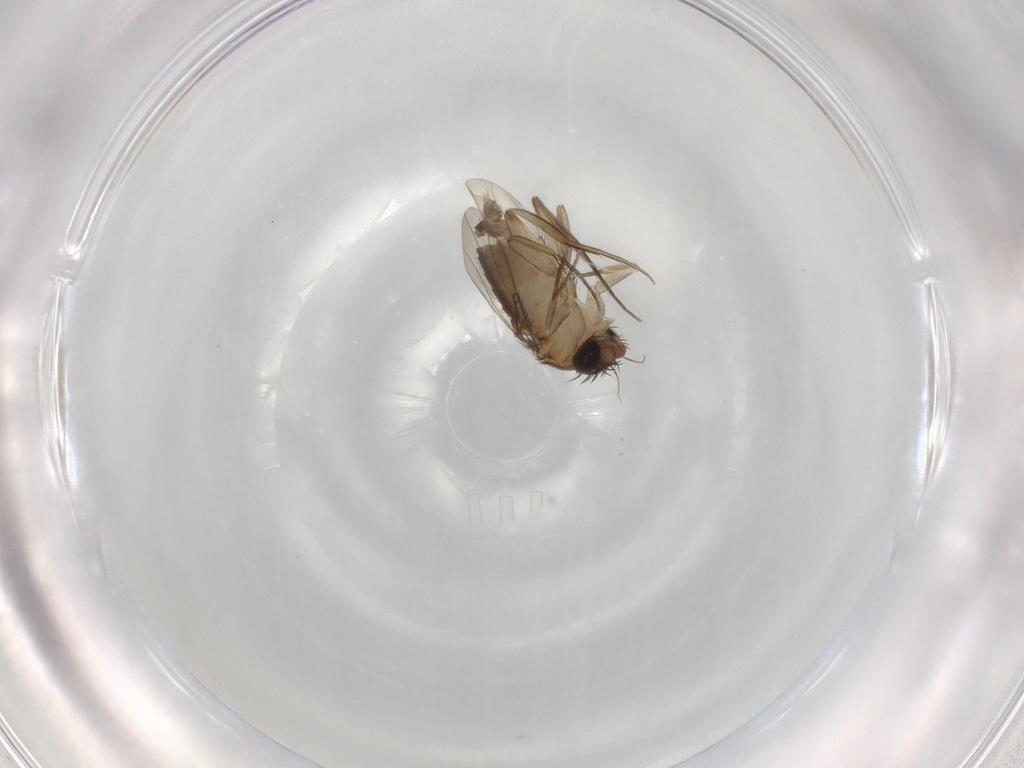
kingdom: Animalia
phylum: Arthropoda
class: Insecta
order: Diptera
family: Phoridae
